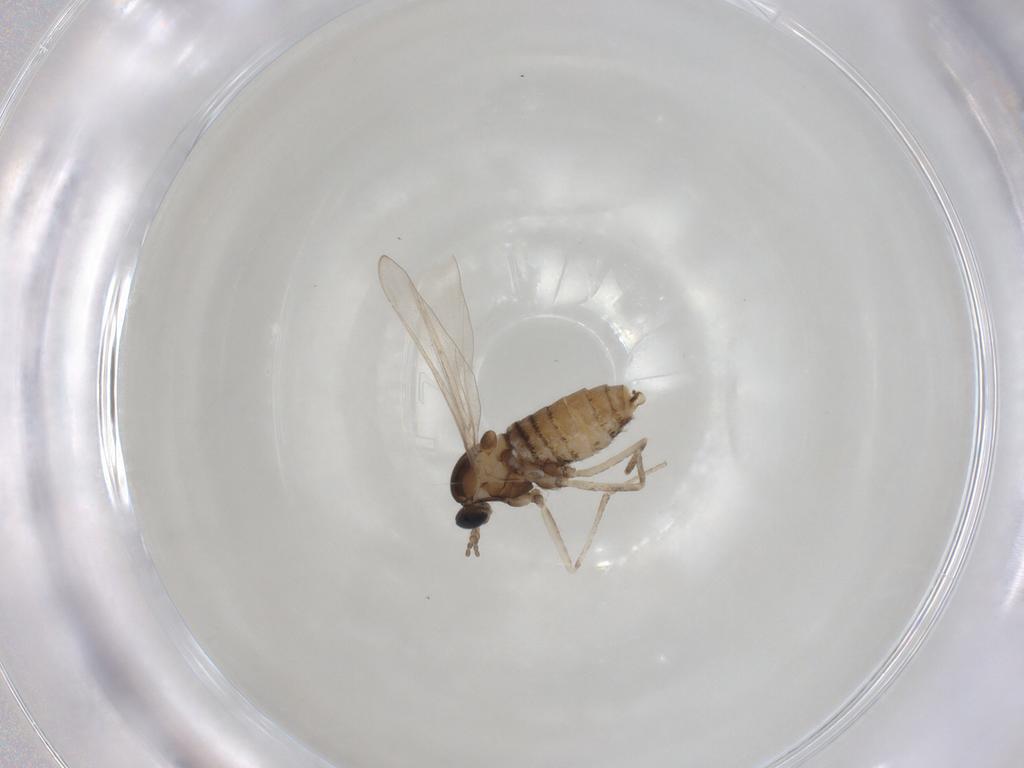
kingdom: Animalia
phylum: Arthropoda
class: Insecta
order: Diptera
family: Cecidomyiidae
